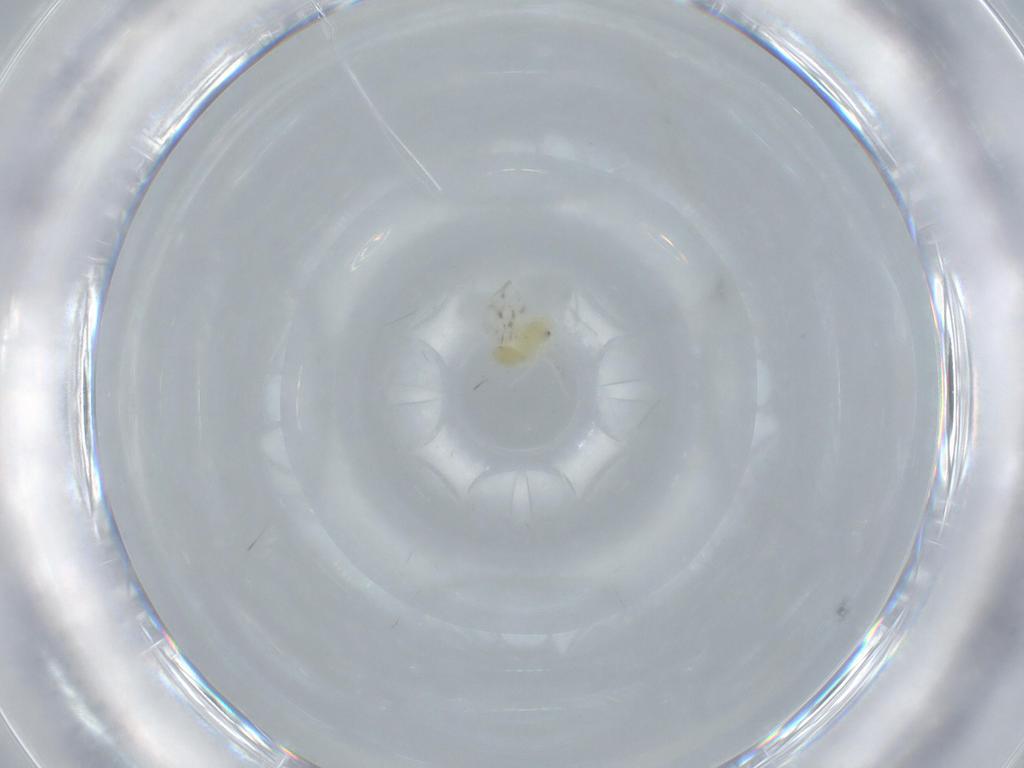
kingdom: Animalia
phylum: Arthropoda
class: Insecta
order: Hemiptera
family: Aleyrodidae
